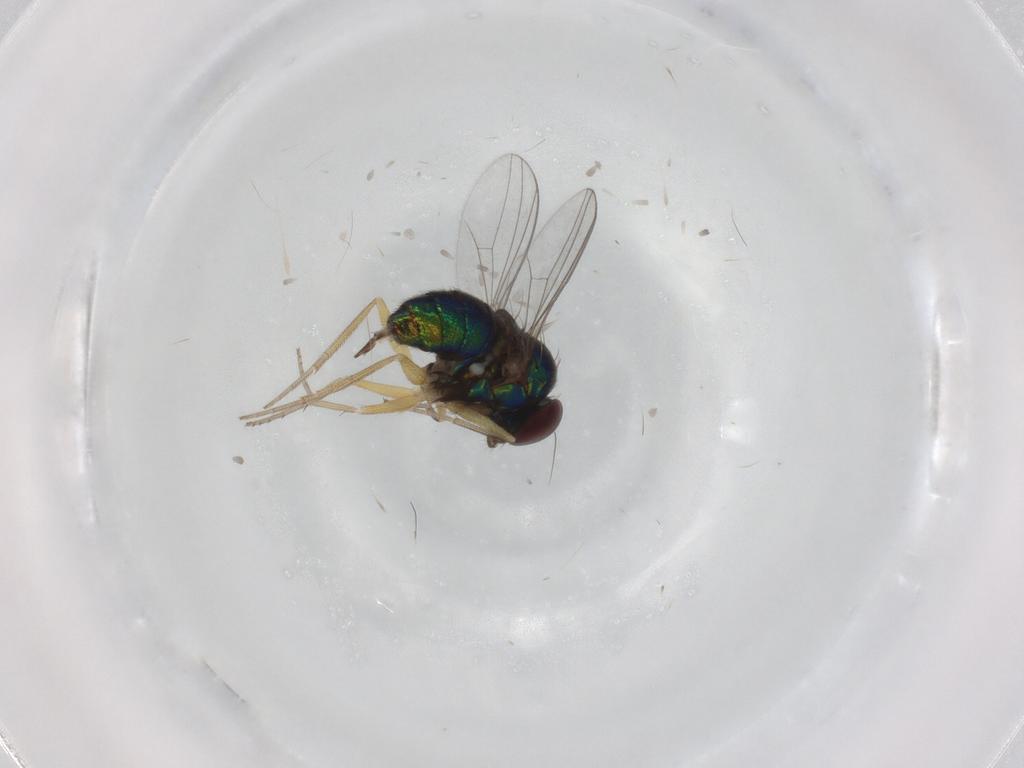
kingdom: Animalia
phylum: Arthropoda
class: Insecta
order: Diptera
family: Dolichopodidae
